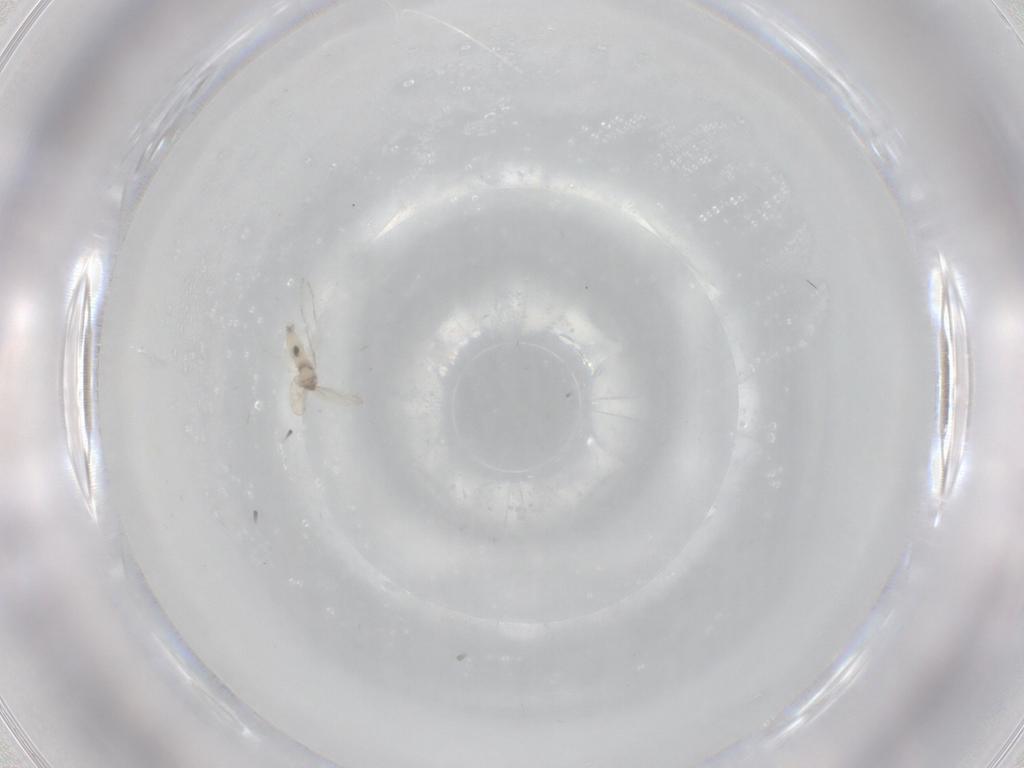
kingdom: Animalia
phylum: Arthropoda
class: Insecta
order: Diptera
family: Cecidomyiidae
